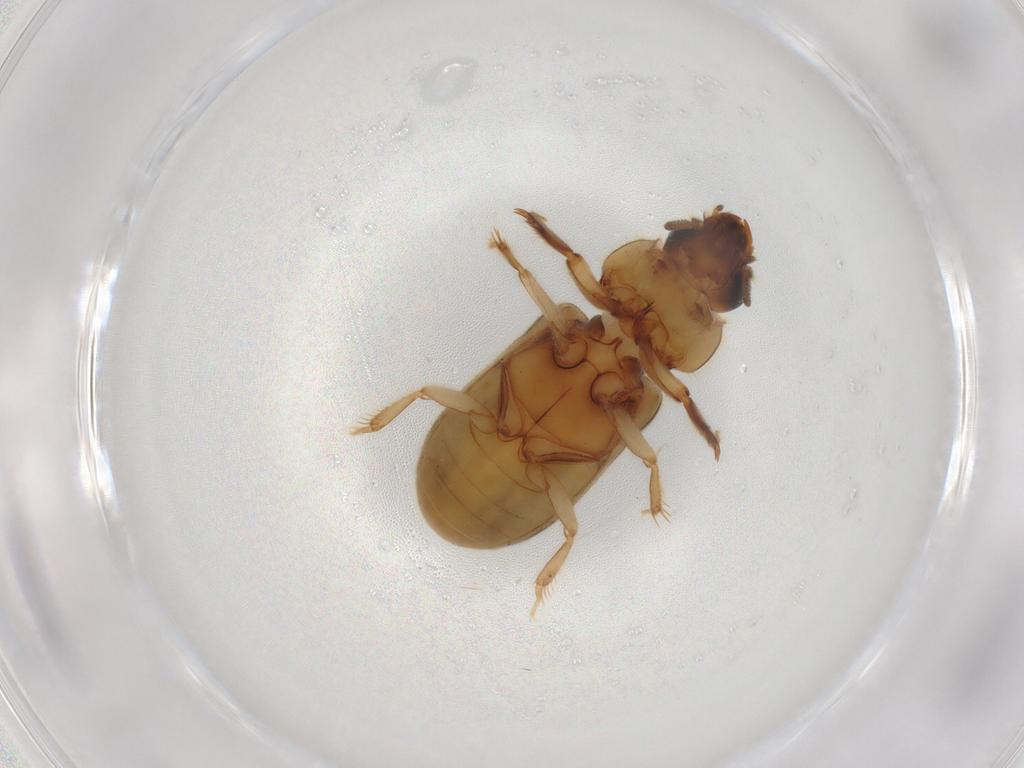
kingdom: Animalia
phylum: Arthropoda
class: Insecta
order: Coleoptera
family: Heteroceridae
